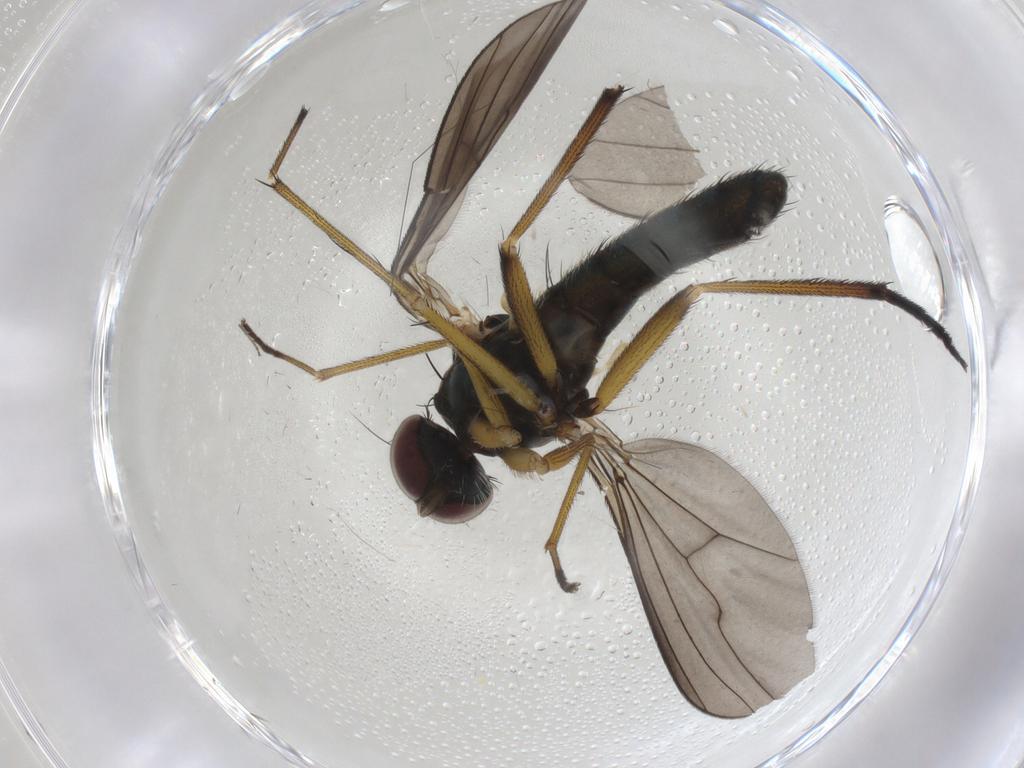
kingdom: Animalia
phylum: Arthropoda
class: Insecta
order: Diptera
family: Dolichopodidae
